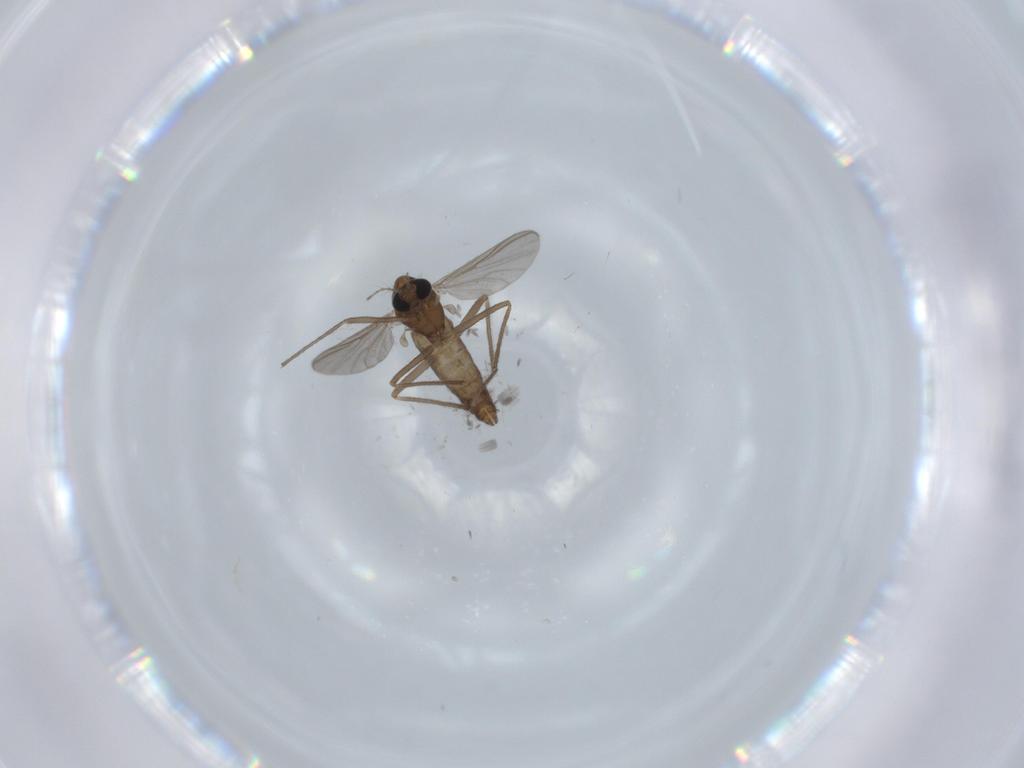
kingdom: Animalia
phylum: Arthropoda
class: Insecta
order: Diptera
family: Chironomidae
